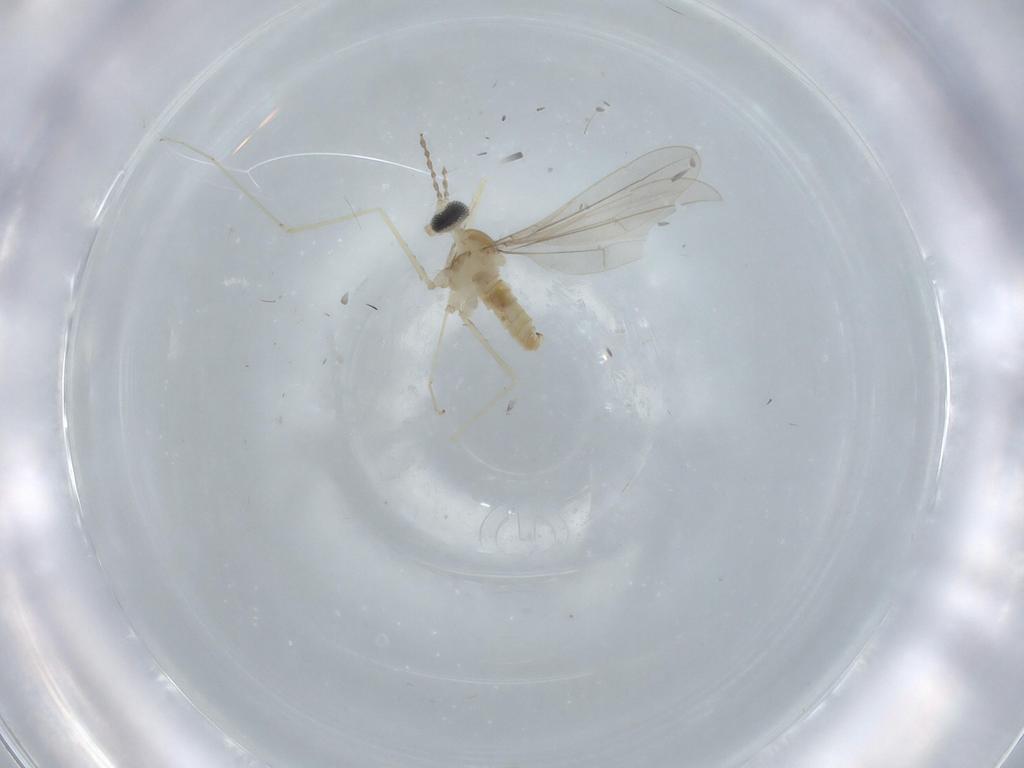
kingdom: Animalia
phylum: Arthropoda
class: Insecta
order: Diptera
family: Cecidomyiidae
